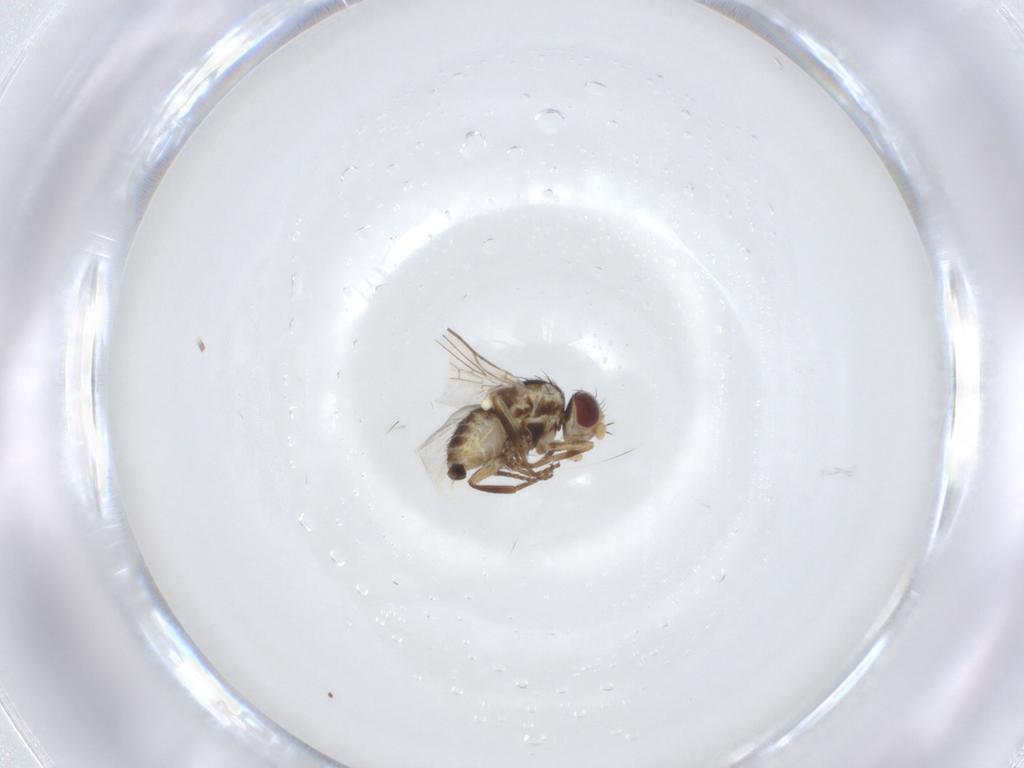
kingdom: Animalia
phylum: Arthropoda
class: Insecta
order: Diptera
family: Agromyzidae
